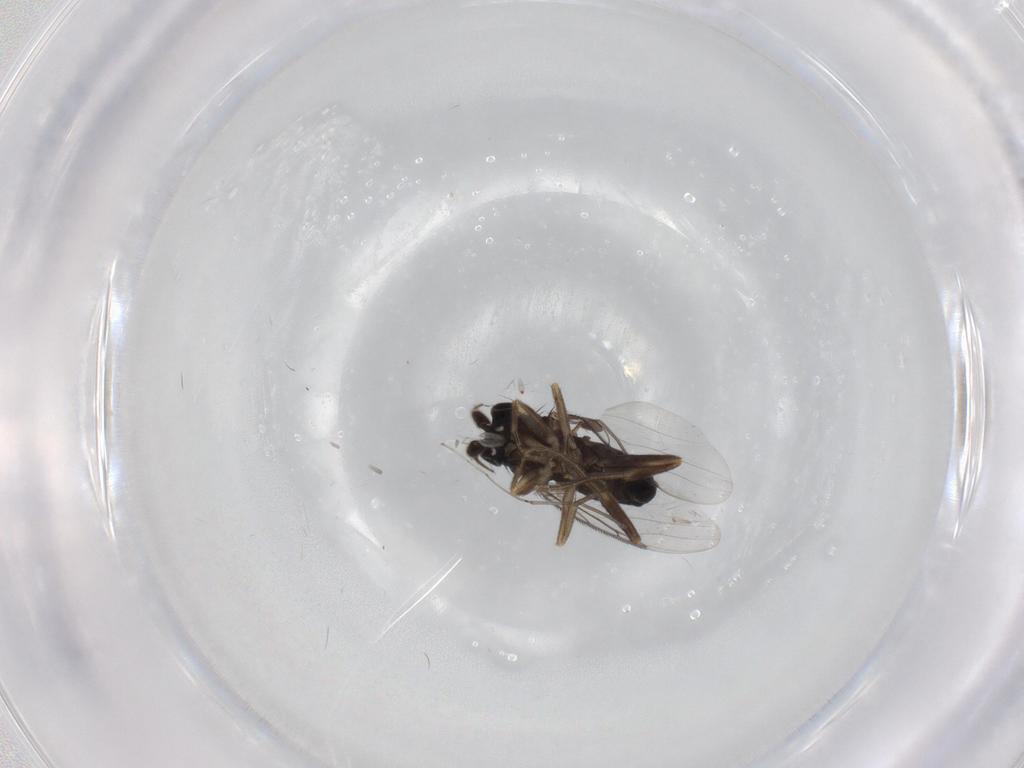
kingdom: Animalia
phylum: Arthropoda
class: Insecta
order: Diptera
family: Phoridae
